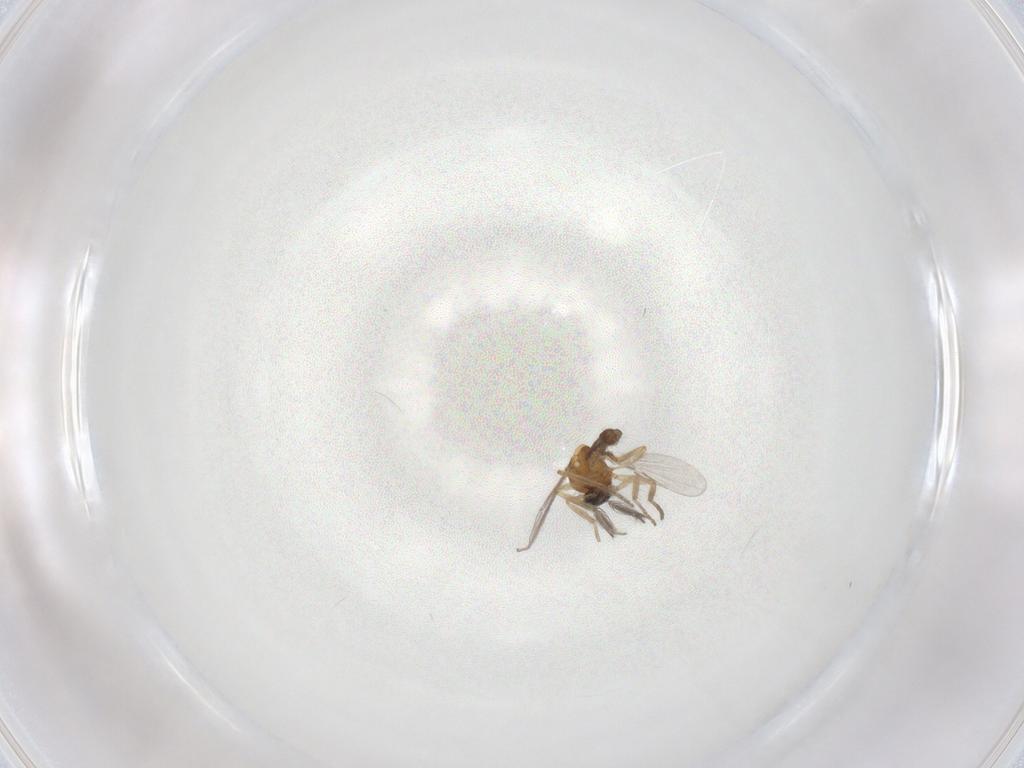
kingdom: Animalia
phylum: Arthropoda
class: Insecta
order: Diptera
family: Ceratopogonidae
